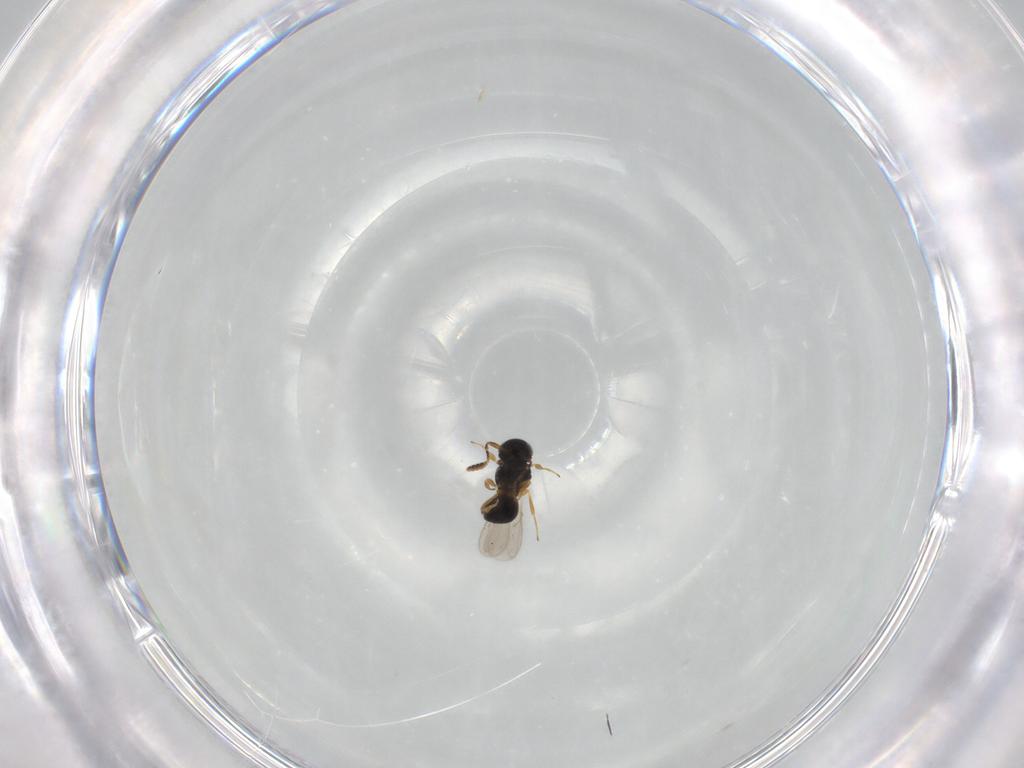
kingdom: Animalia
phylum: Arthropoda
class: Insecta
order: Hymenoptera
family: Scelionidae
